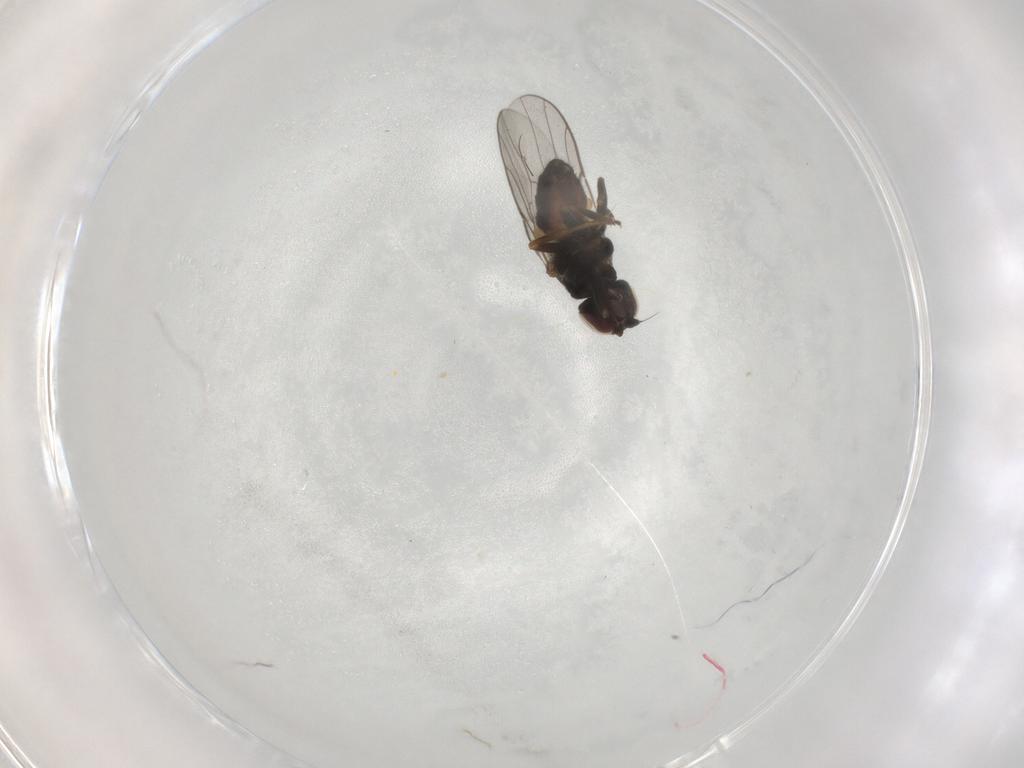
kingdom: Animalia
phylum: Arthropoda
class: Insecta
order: Diptera
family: Chloropidae
